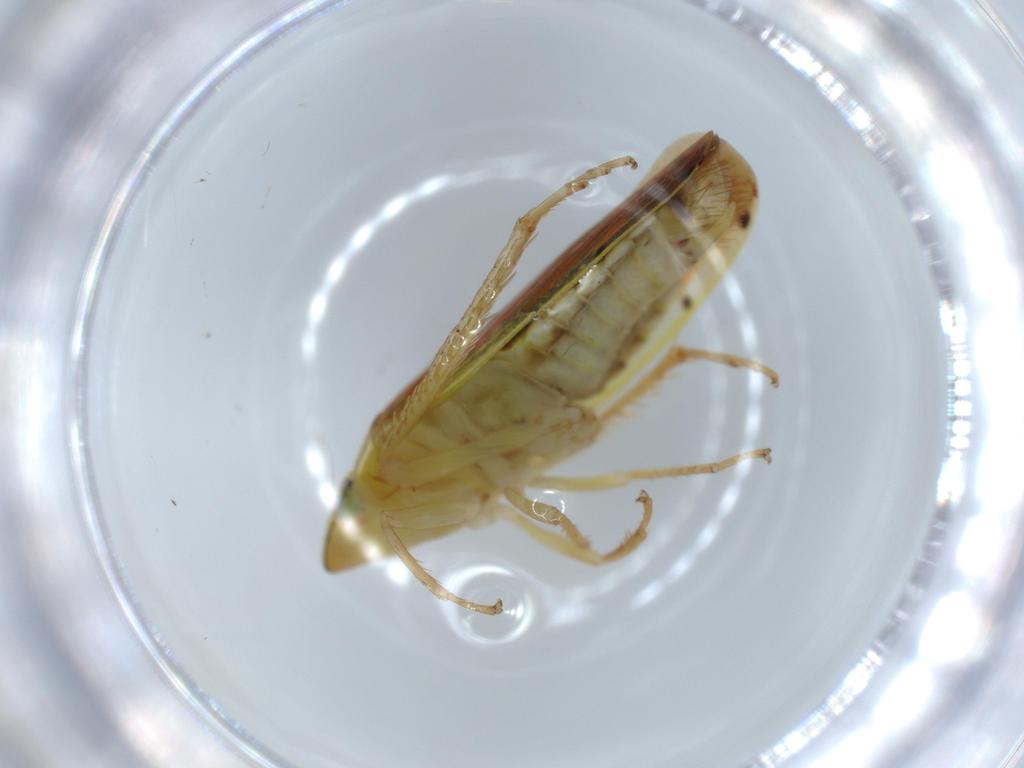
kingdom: Animalia
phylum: Arthropoda
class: Insecta
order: Hemiptera
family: Cicadellidae
